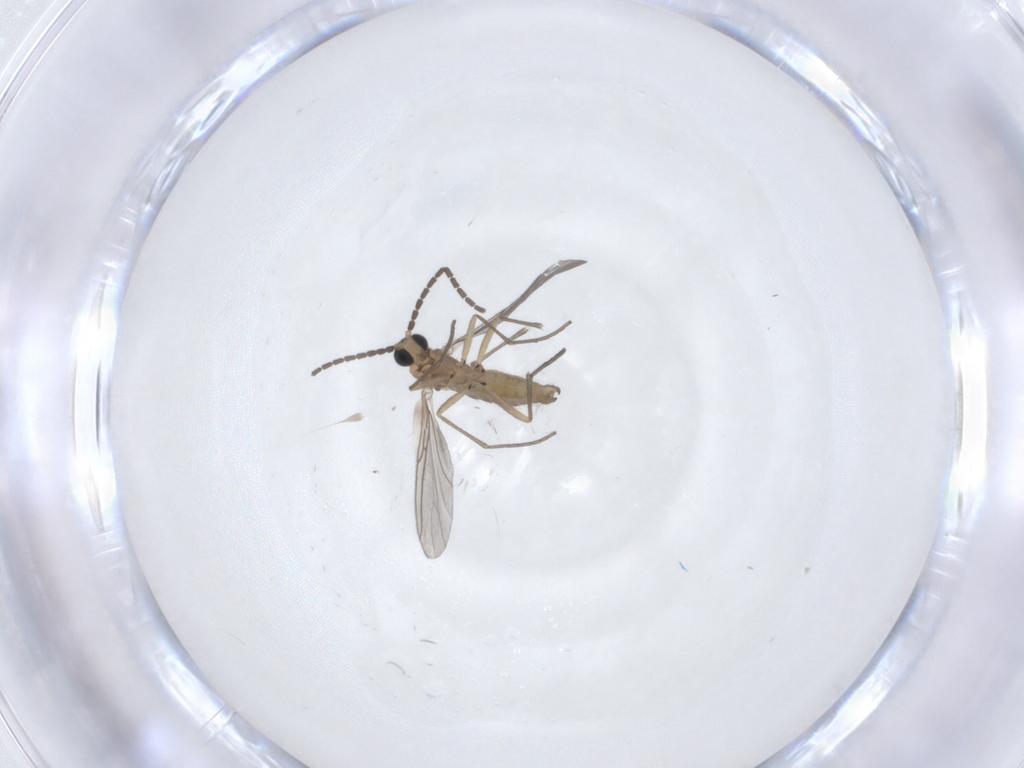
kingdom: Animalia
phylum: Arthropoda
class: Insecta
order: Diptera
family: Sciaridae
